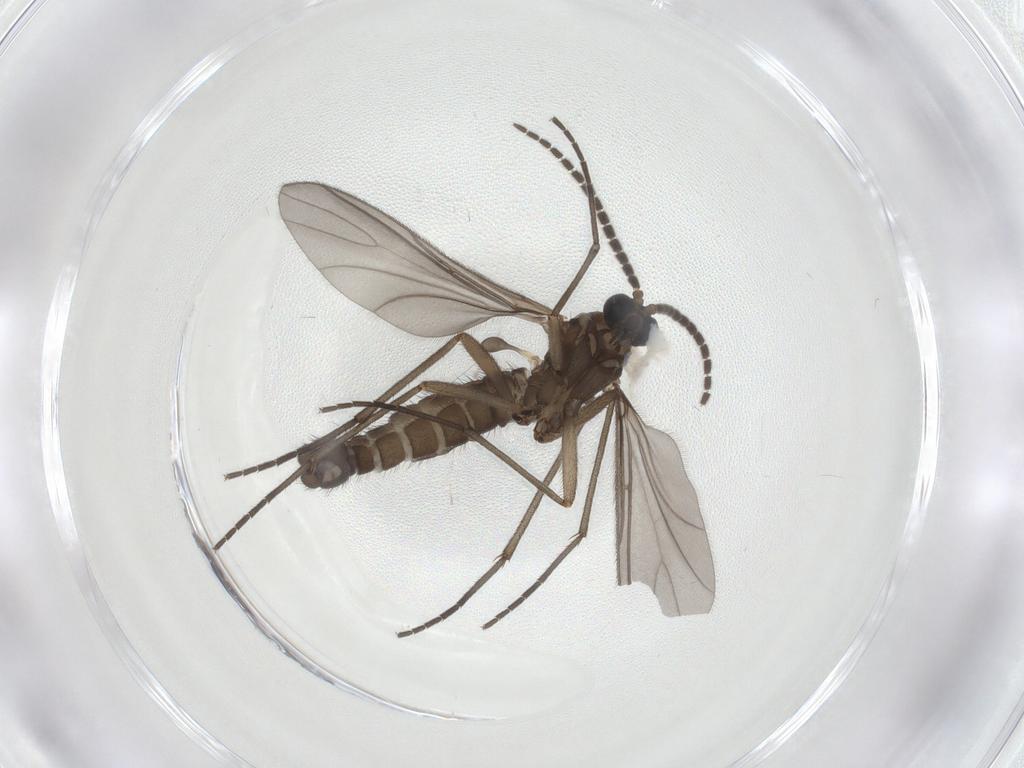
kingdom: Animalia
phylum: Arthropoda
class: Insecta
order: Diptera
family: Sciaridae
